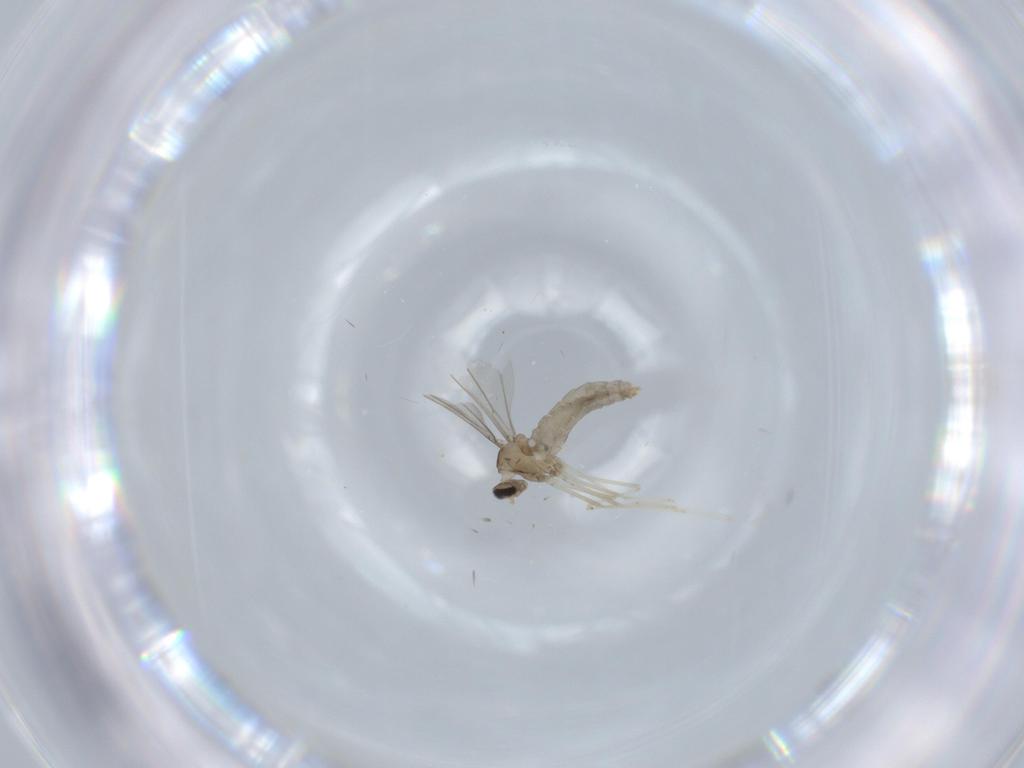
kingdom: Animalia
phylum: Arthropoda
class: Insecta
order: Diptera
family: Cecidomyiidae
